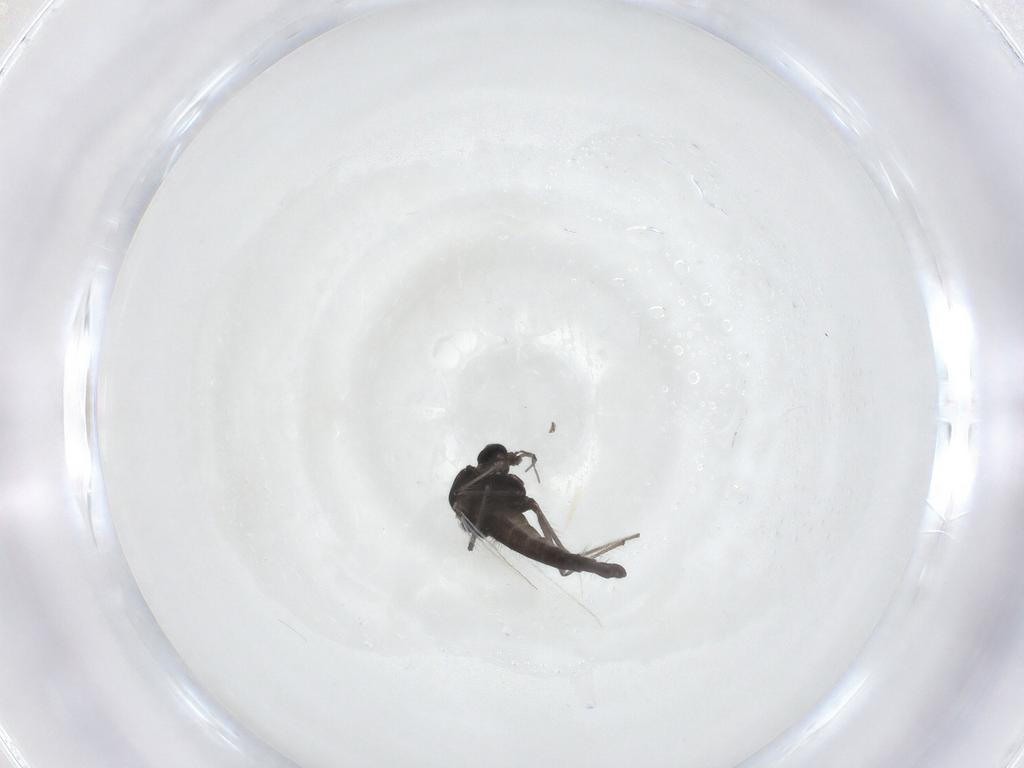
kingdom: Animalia
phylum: Arthropoda
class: Insecta
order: Diptera
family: Chironomidae
